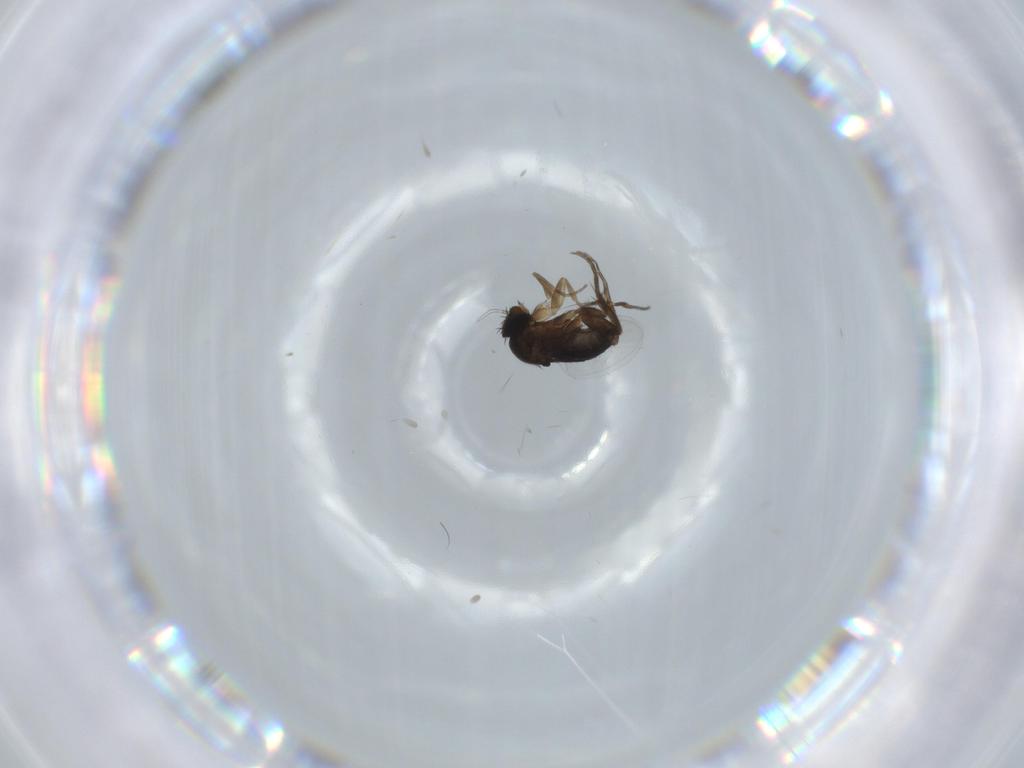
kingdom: Animalia
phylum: Arthropoda
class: Insecta
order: Diptera
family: Phoridae
